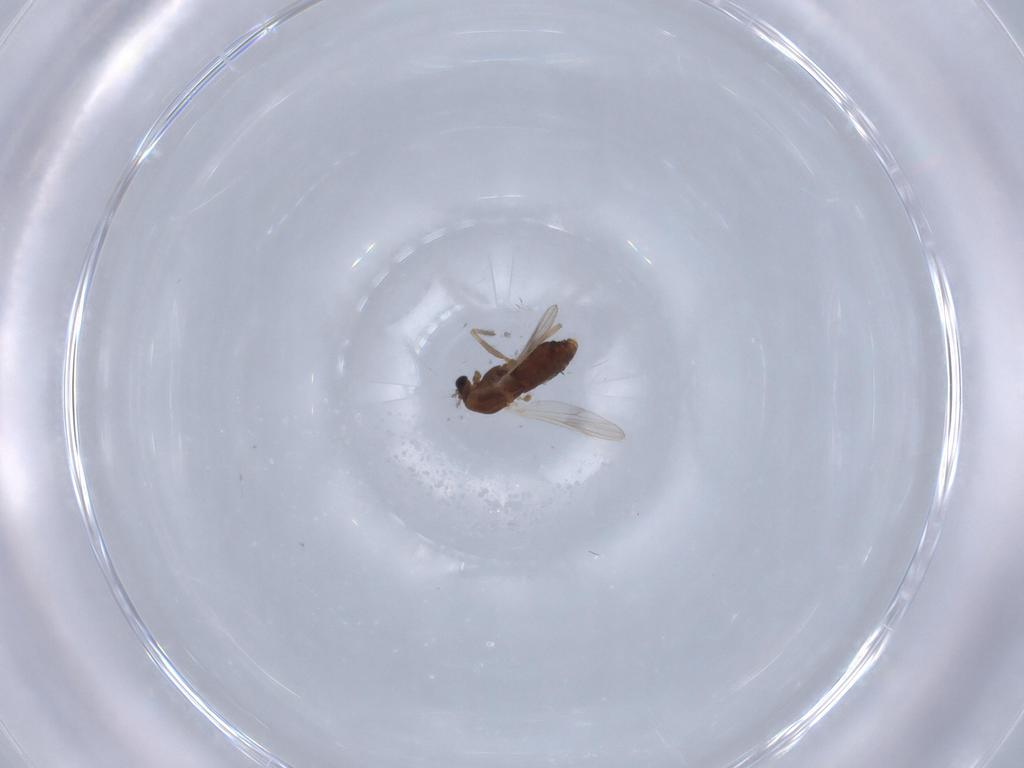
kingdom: Animalia
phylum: Arthropoda
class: Insecta
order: Diptera
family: Chironomidae
